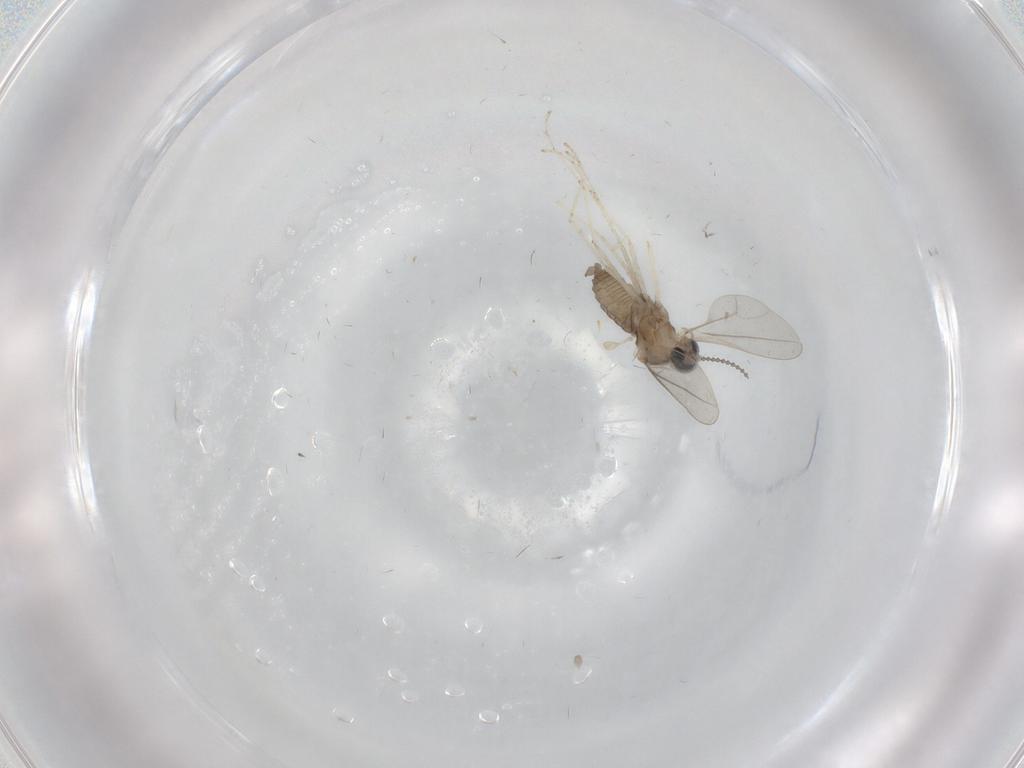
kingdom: Animalia
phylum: Arthropoda
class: Insecta
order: Diptera
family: Cecidomyiidae
